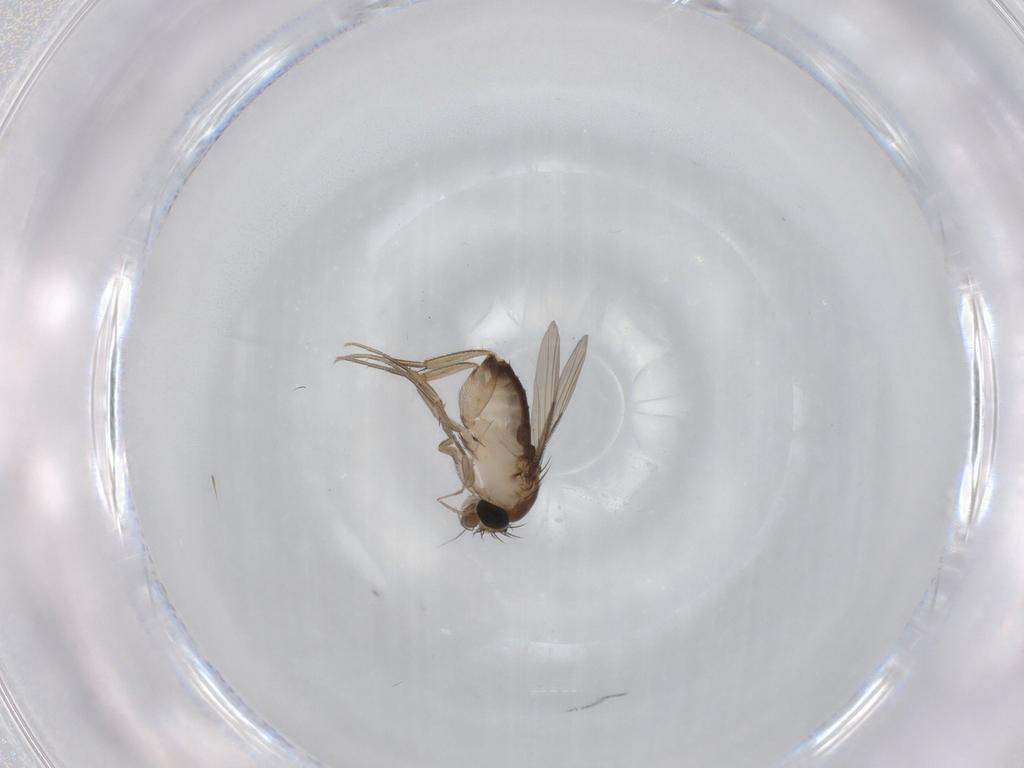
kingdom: Animalia
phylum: Arthropoda
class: Insecta
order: Diptera
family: Phoridae
